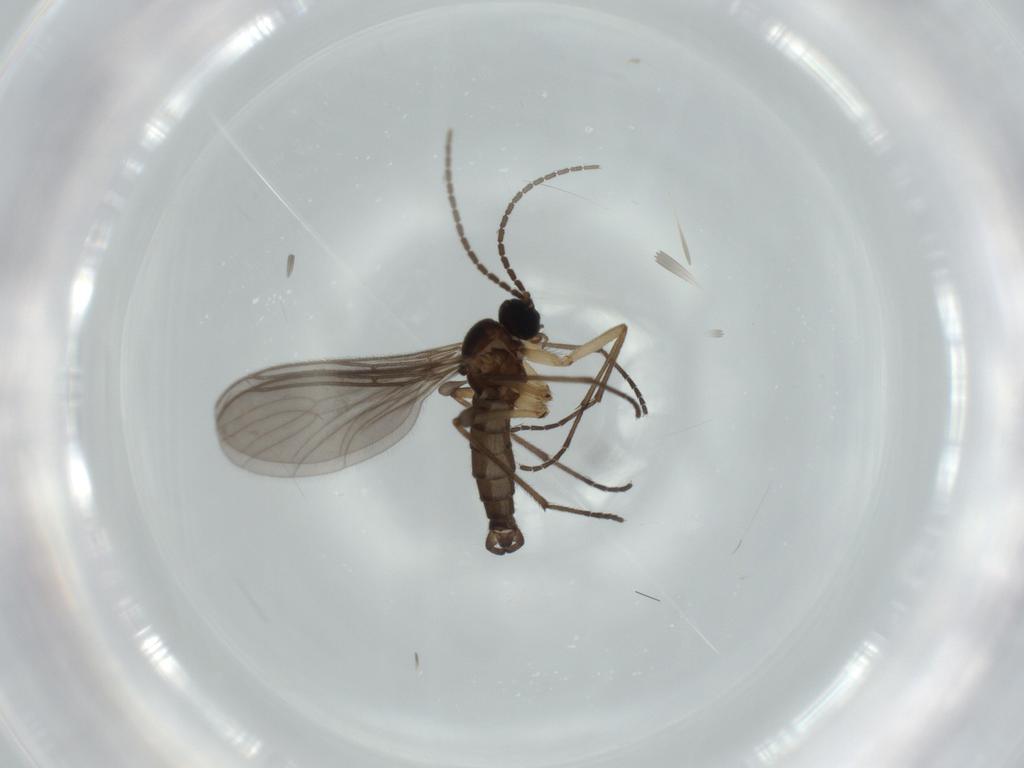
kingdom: Animalia
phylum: Arthropoda
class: Insecta
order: Diptera
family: Sciaridae
